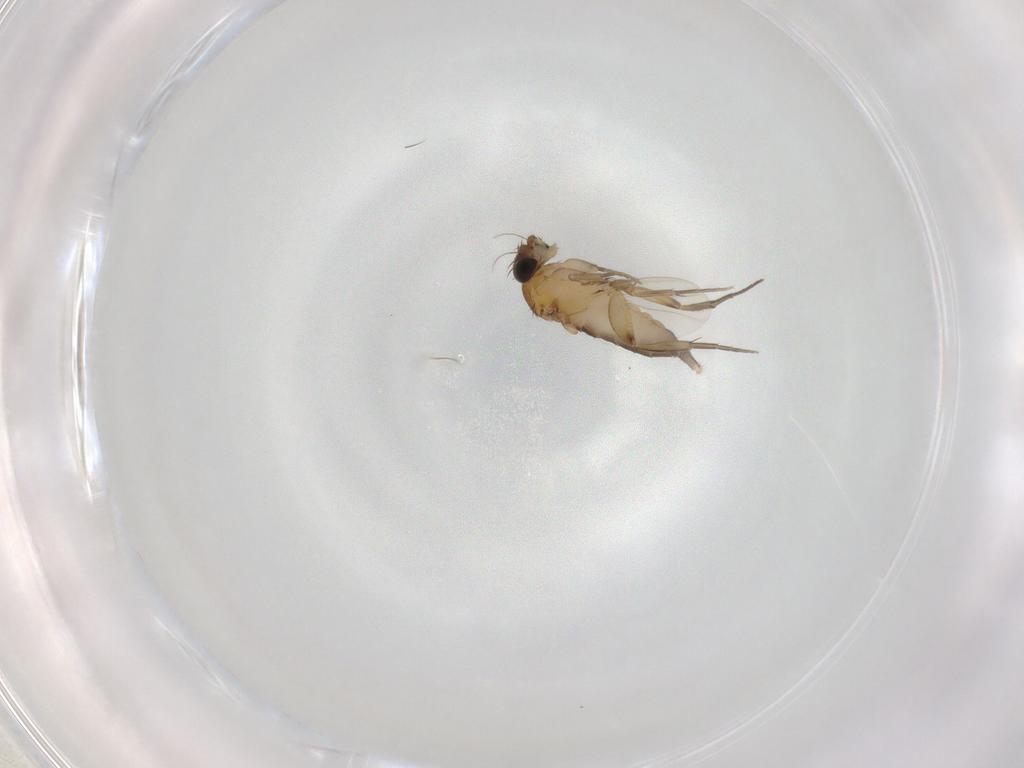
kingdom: Animalia
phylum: Arthropoda
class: Insecta
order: Diptera
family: Phoridae
